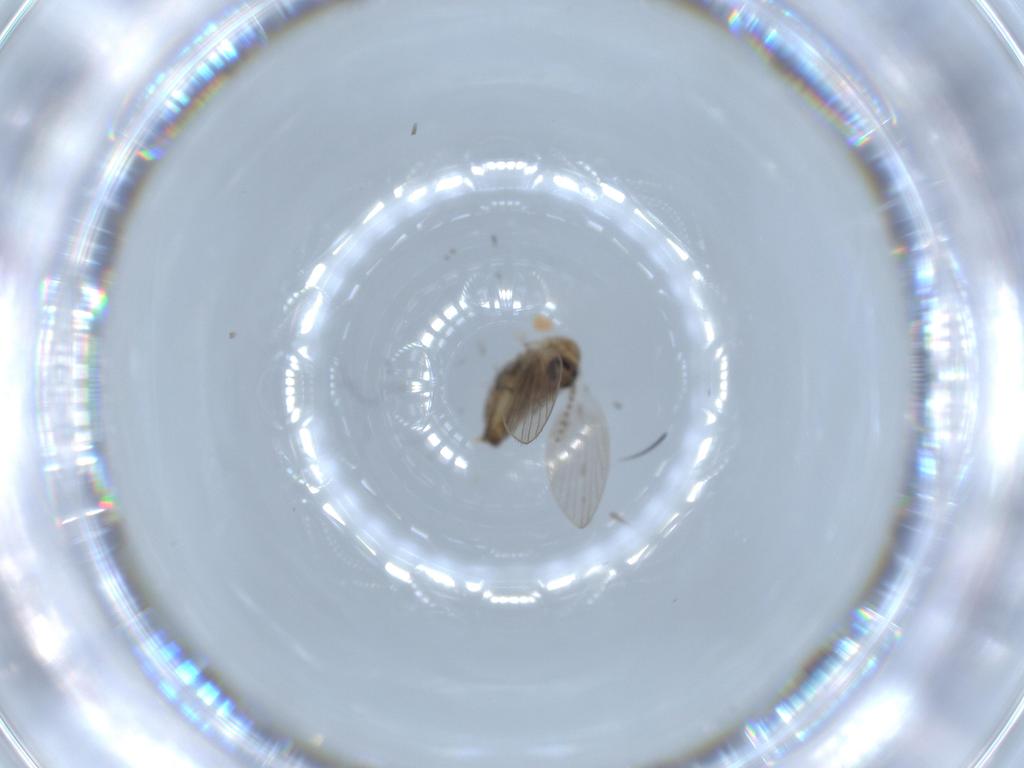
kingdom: Animalia
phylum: Arthropoda
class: Insecta
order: Diptera
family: Psychodidae
